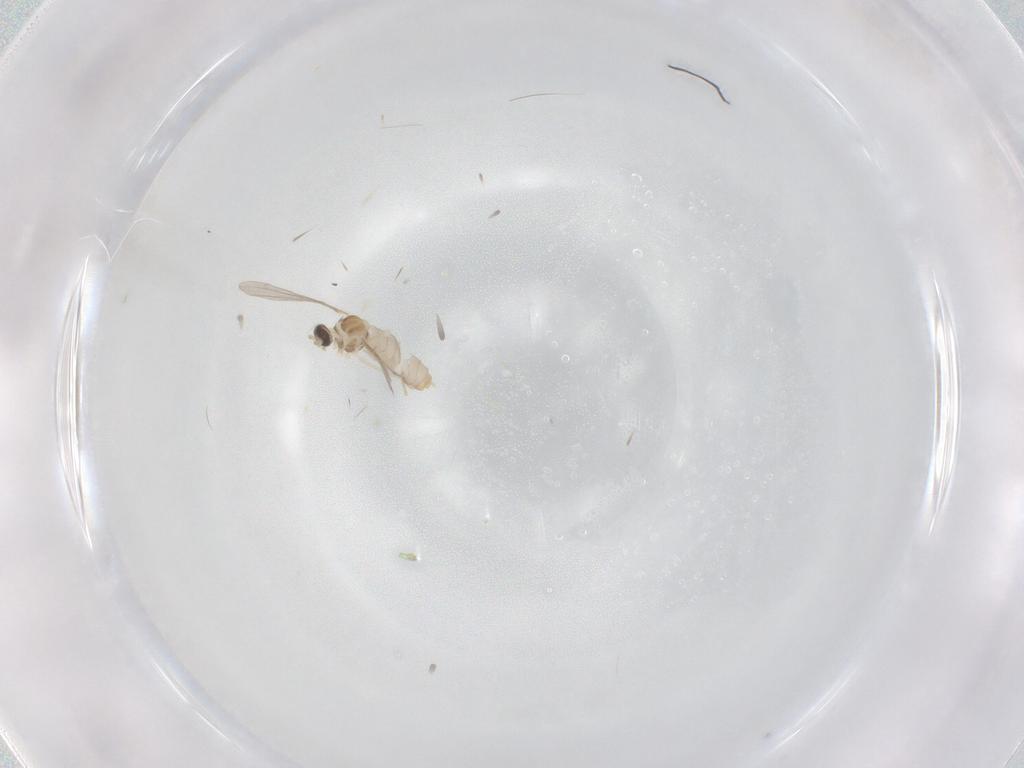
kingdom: Animalia
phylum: Arthropoda
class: Insecta
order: Diptera
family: Cecidomyiidae
